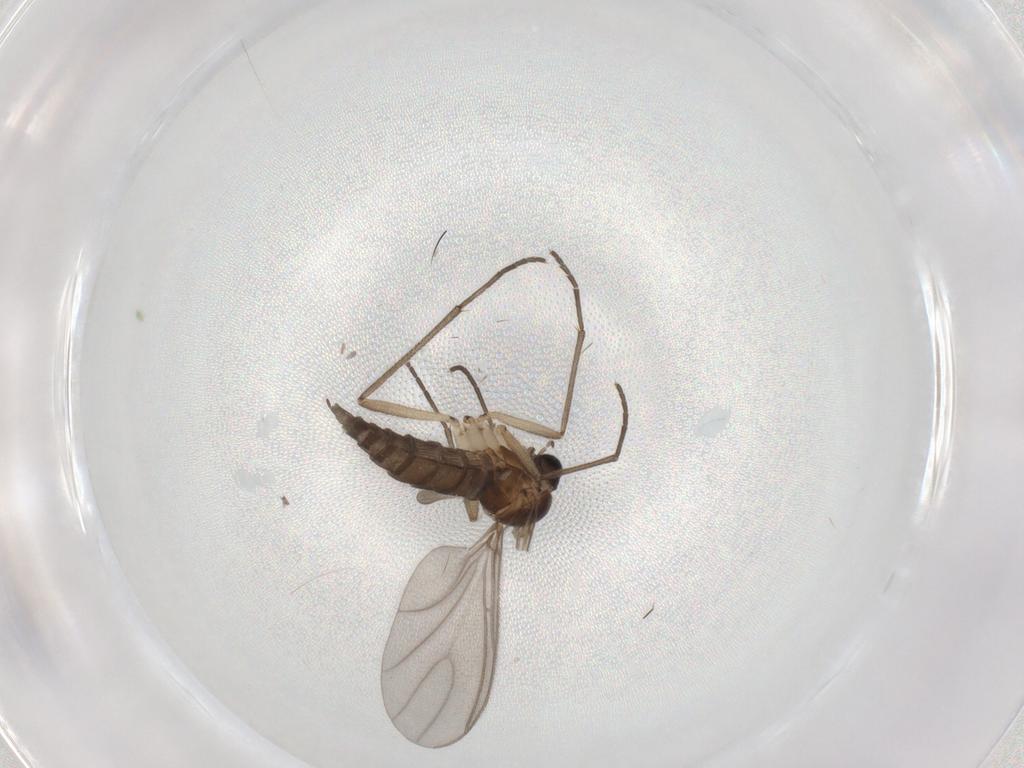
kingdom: Animalia
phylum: Arthropoda
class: Insecta
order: Diptera
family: Sciaridae
